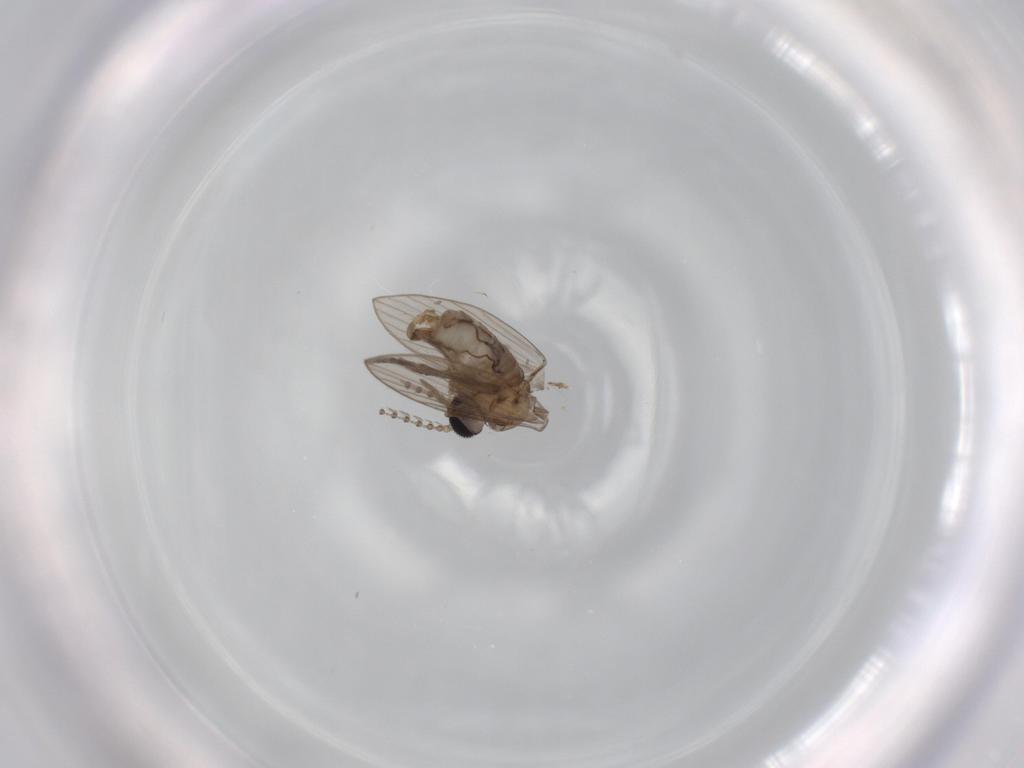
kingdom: Animalia
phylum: Arthropoda
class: Insecta
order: Diptera
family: Psychodidae
